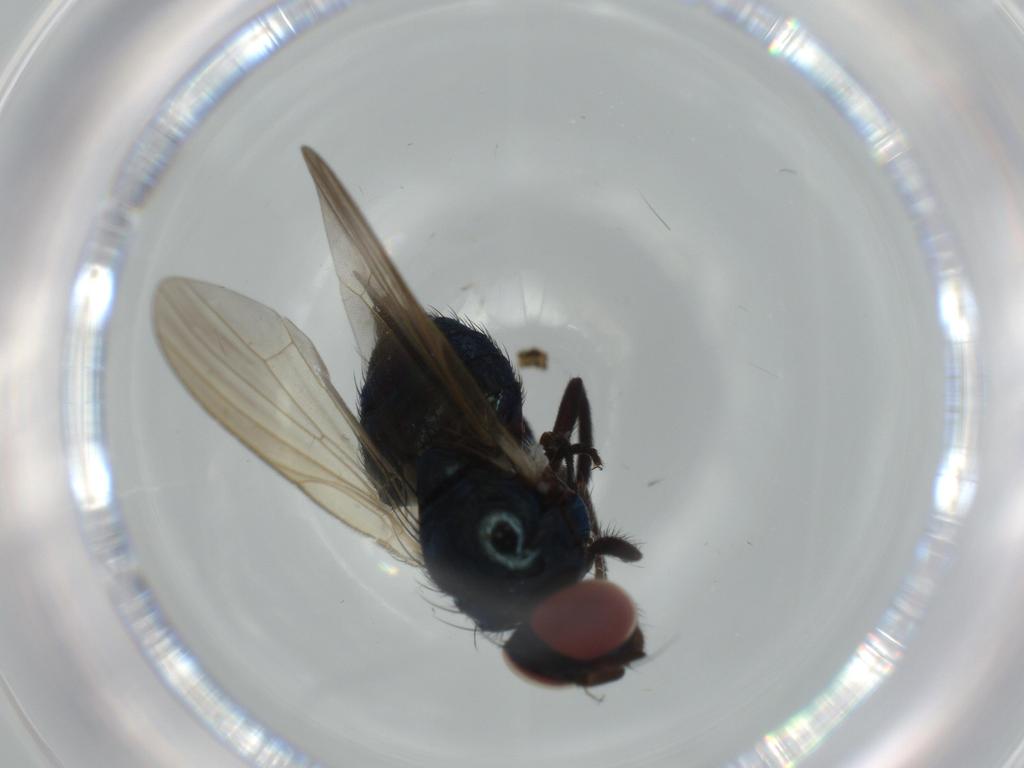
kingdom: Animalia
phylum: Arthropoda
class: Insecta
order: Diptera
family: Lonchaeidae
